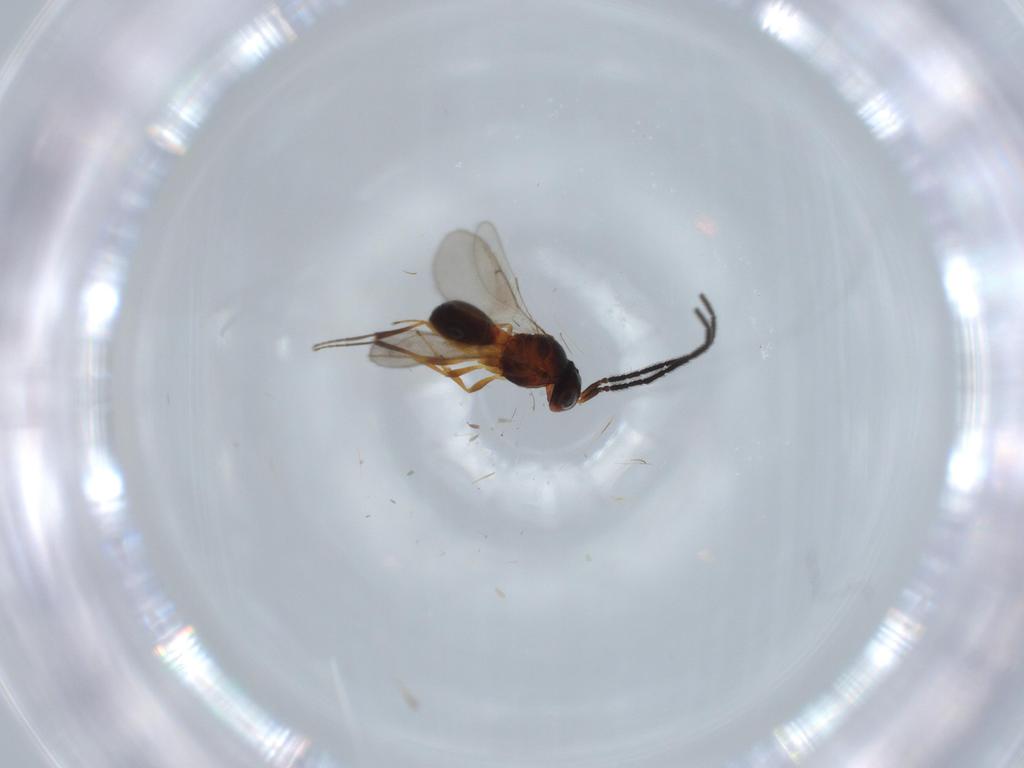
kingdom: Animalia
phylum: Arthropoda
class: Insecta
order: Hymenoptera
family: Scelionidae
